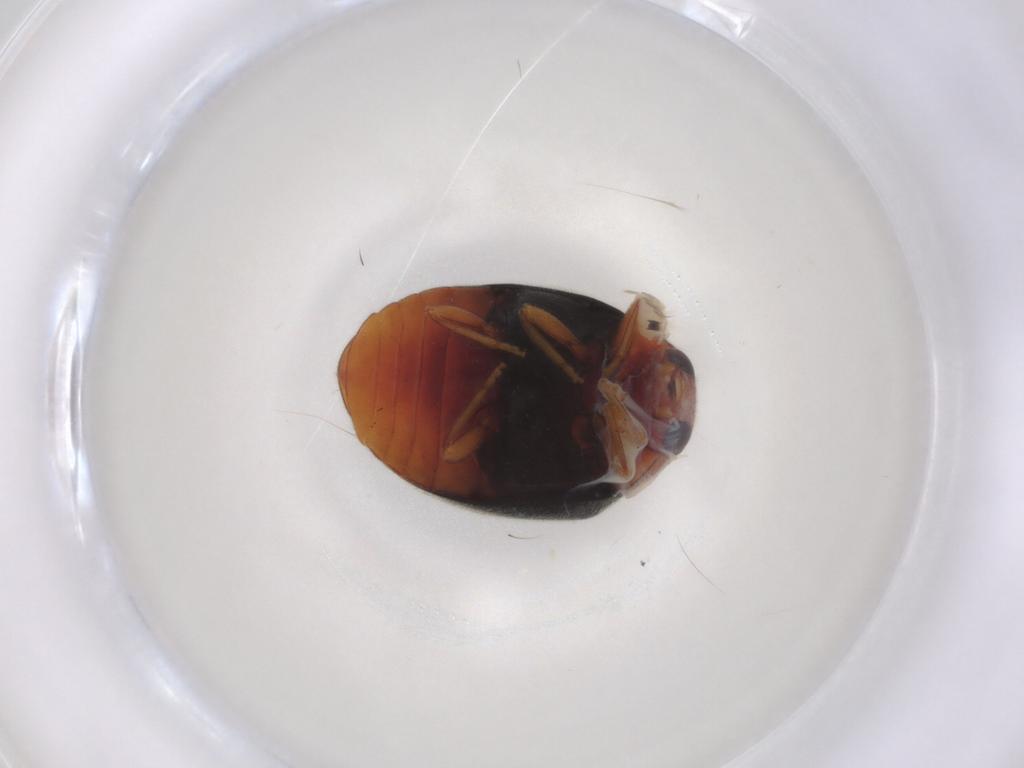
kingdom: Animalia
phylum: Arthropoda
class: Insecta
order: Coleoptera
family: Coccinellidae
